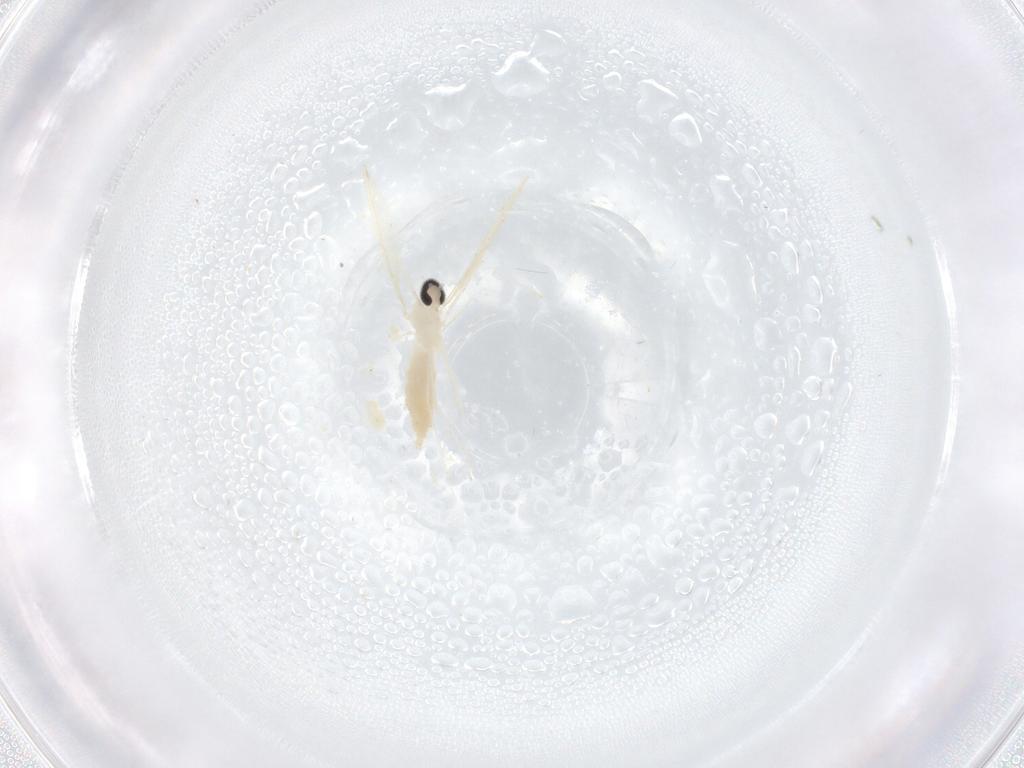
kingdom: Animalia
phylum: Arthropoda
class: Insecta
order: Diptera
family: Cecidomyiidae
